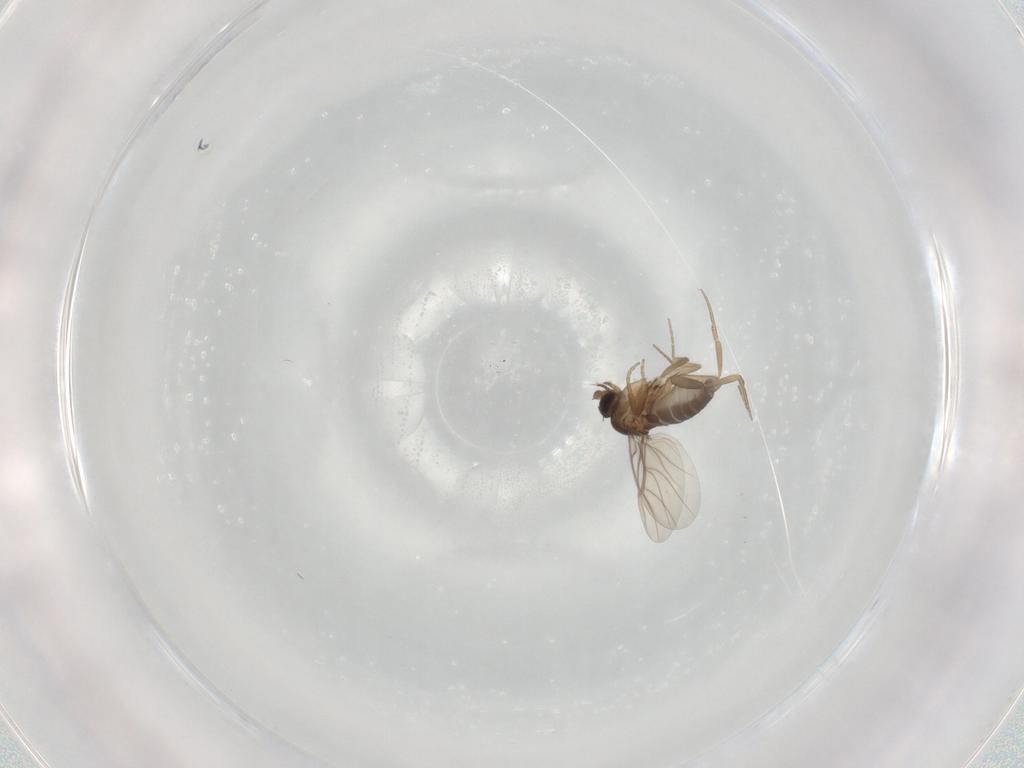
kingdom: Animalia
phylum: Arthropoda
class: Insecta
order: Diptera
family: Phoridae
